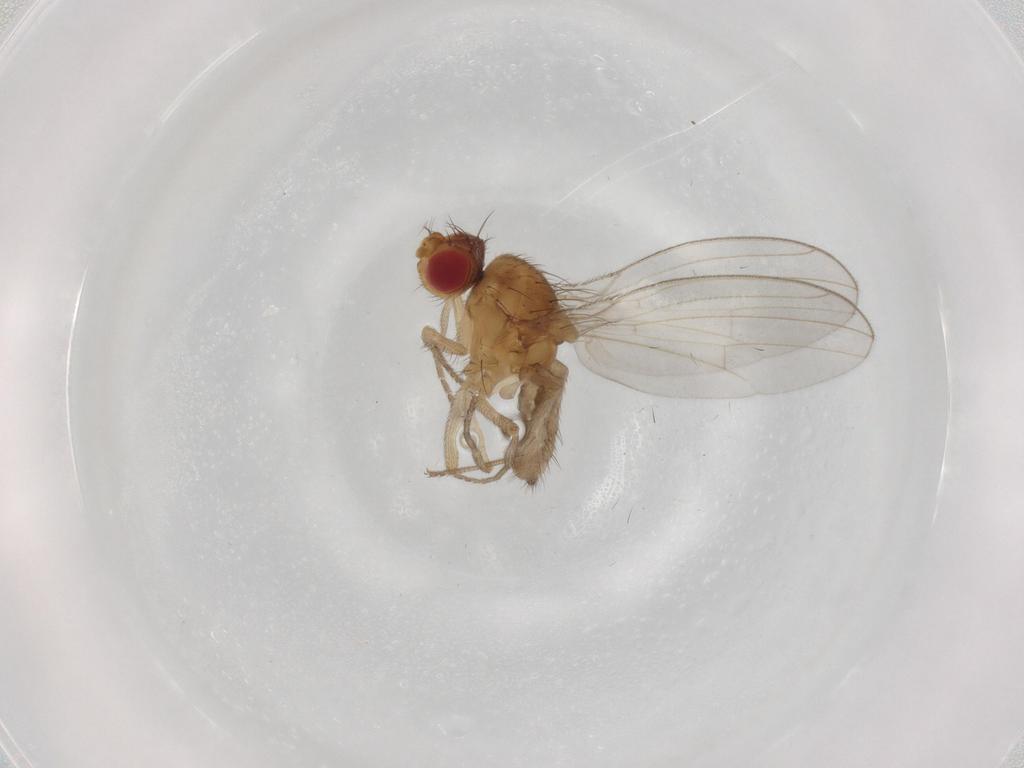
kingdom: Animalia
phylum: Arthropoda
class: Insecta
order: Diptera
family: Drosophilidae
